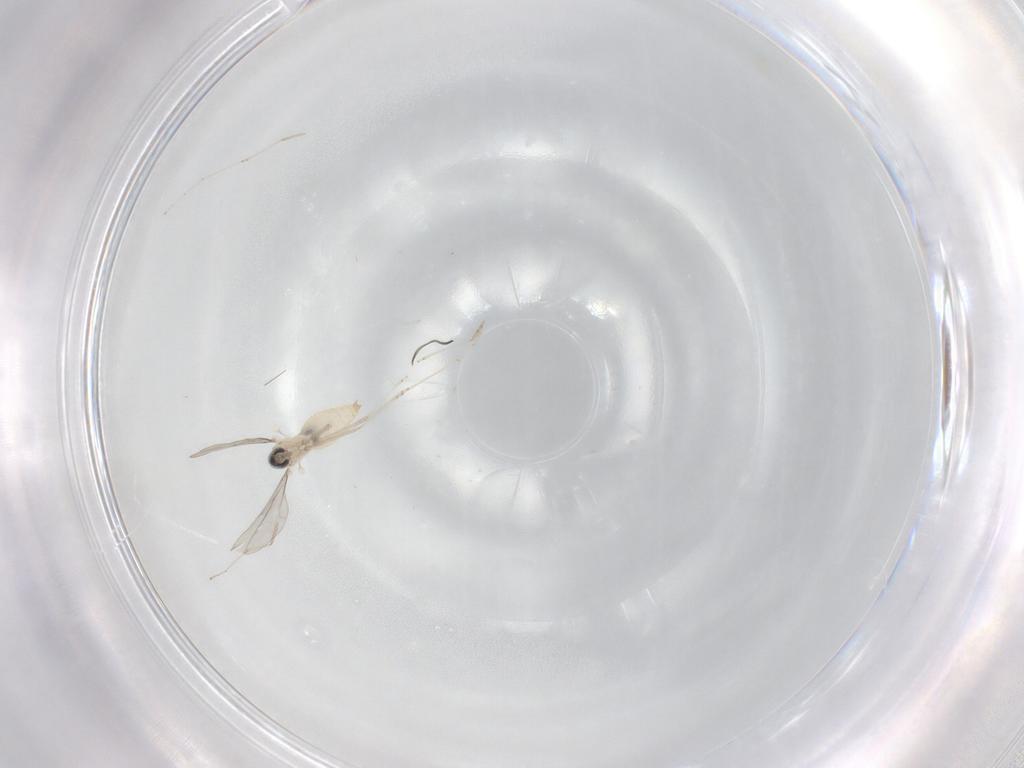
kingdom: Animalia
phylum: Arthropoda
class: Insecta
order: Diptera
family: Cecidomyiidae
